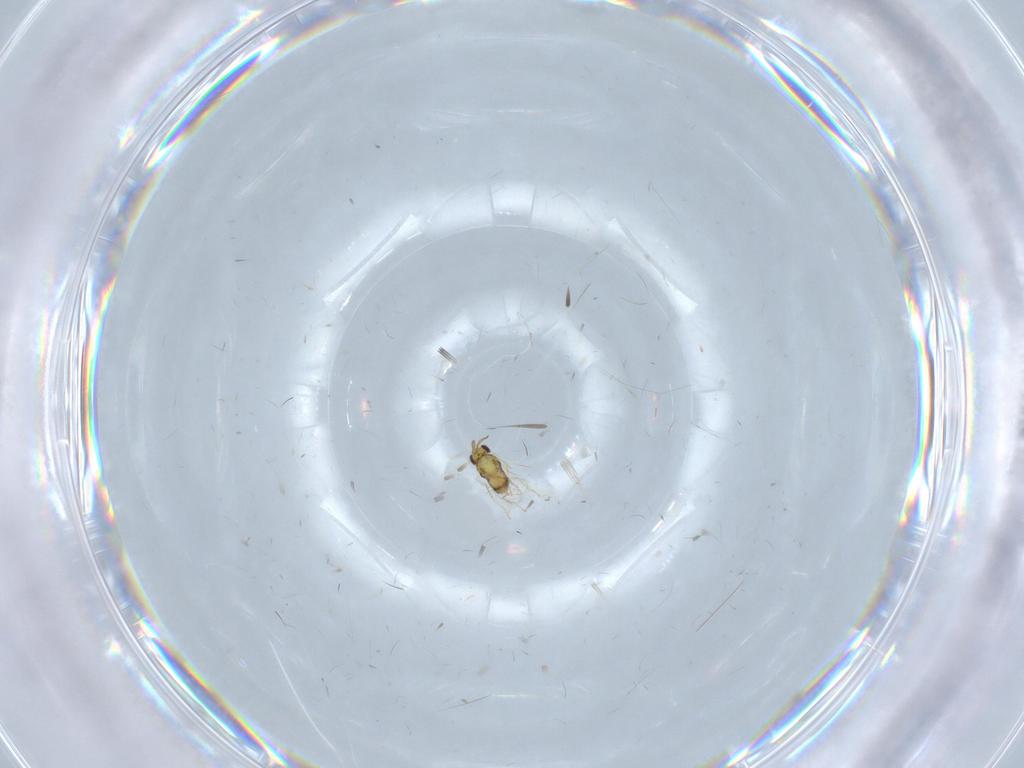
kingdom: Animalia
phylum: Arthropoda
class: Insecta
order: Hymenoptera
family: Aphelinidae
